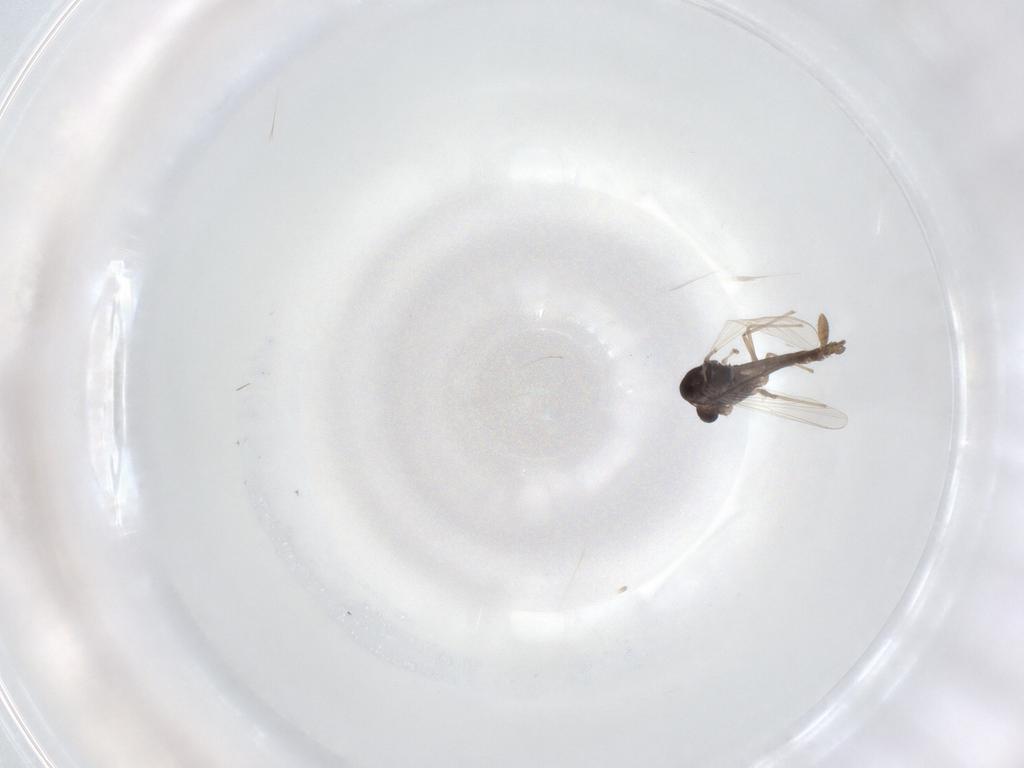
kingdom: Animalia
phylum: Arthropoda
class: Insecta
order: Diptera
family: Chironomidae
